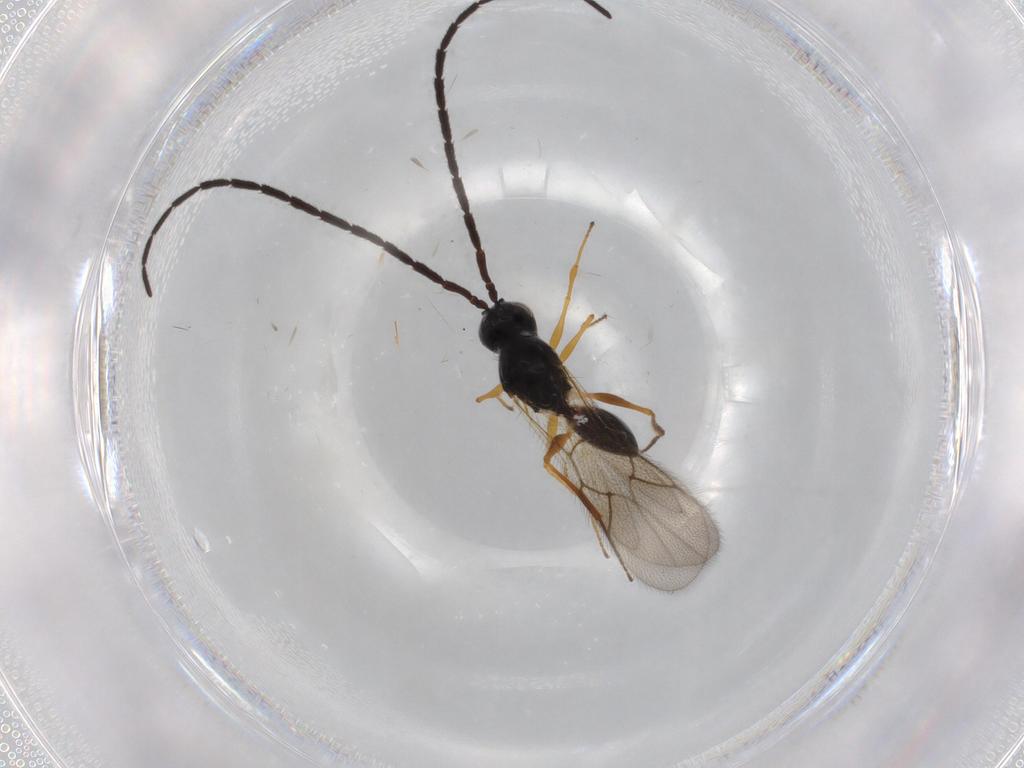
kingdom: Animalia
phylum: Arthropoda
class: Insecta
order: Hymenoptera
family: Figitidae
